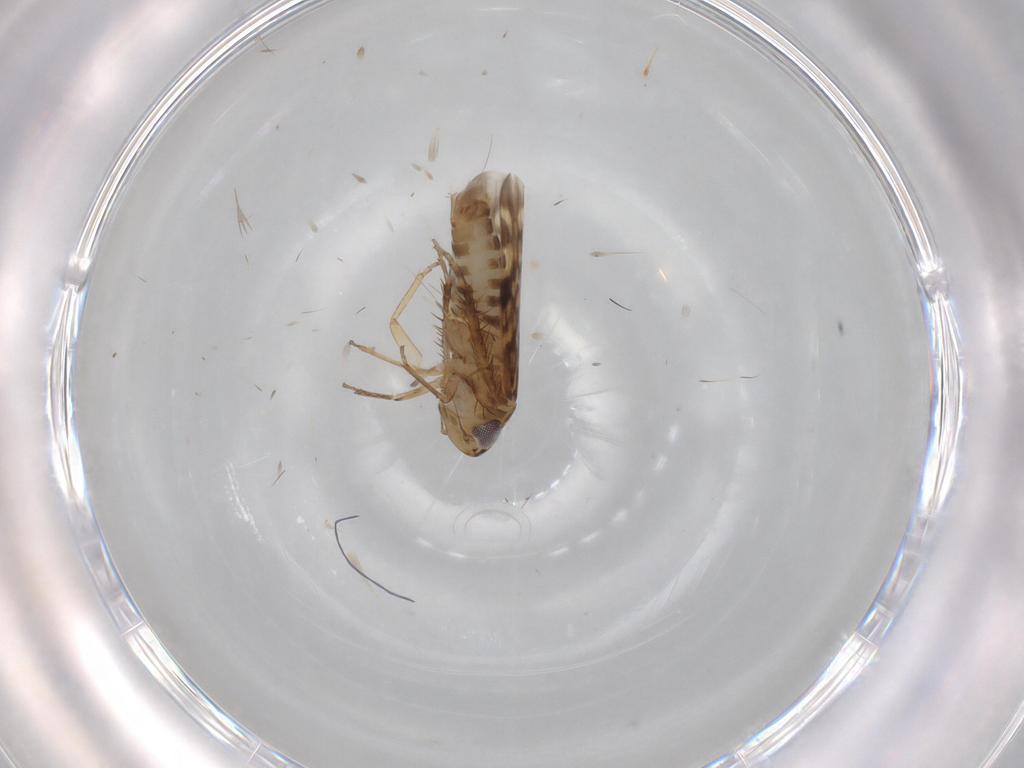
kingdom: Animalia
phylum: Arthropoda
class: Insecta
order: Hemiptera
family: Cicadellidae
